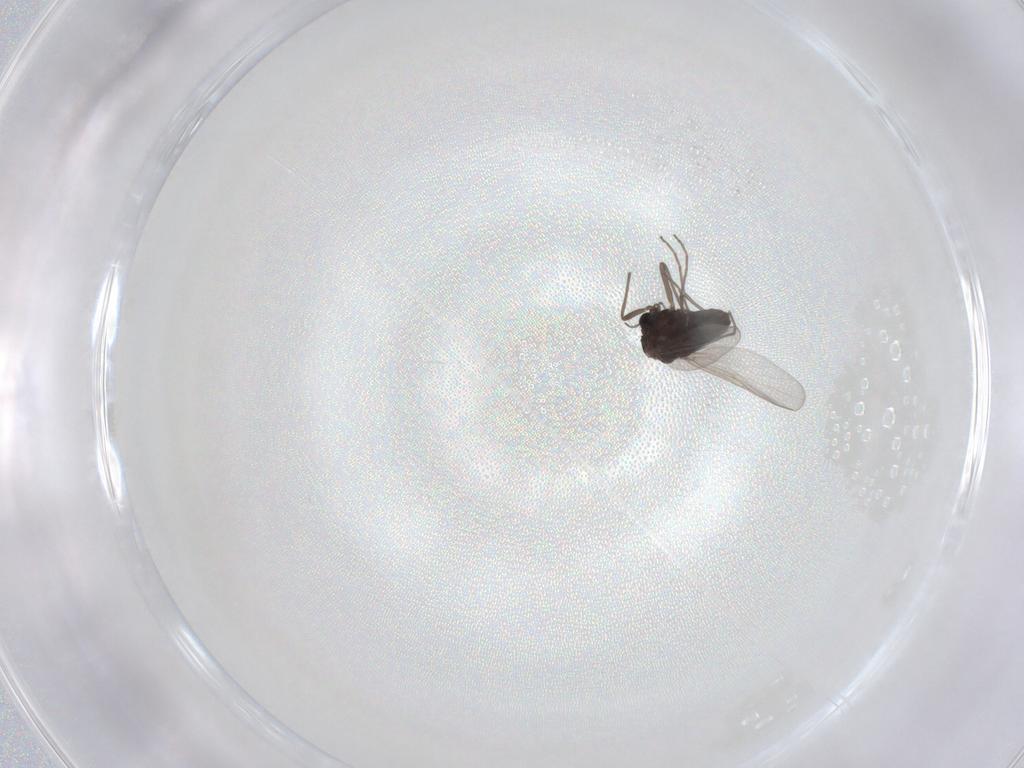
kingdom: Animalia
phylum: Arthropoda
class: Insecta
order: Diptera
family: Chironomidae
